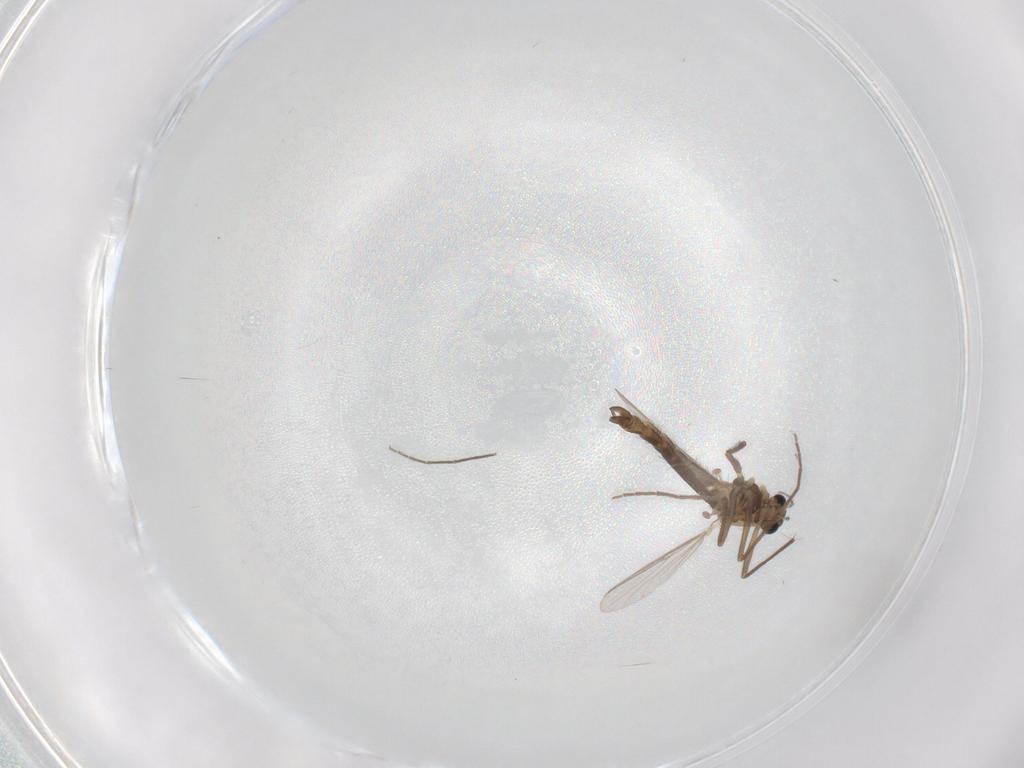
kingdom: Animalia
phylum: Arthropoda
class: Insecta
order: Diptera
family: Chironomidae
